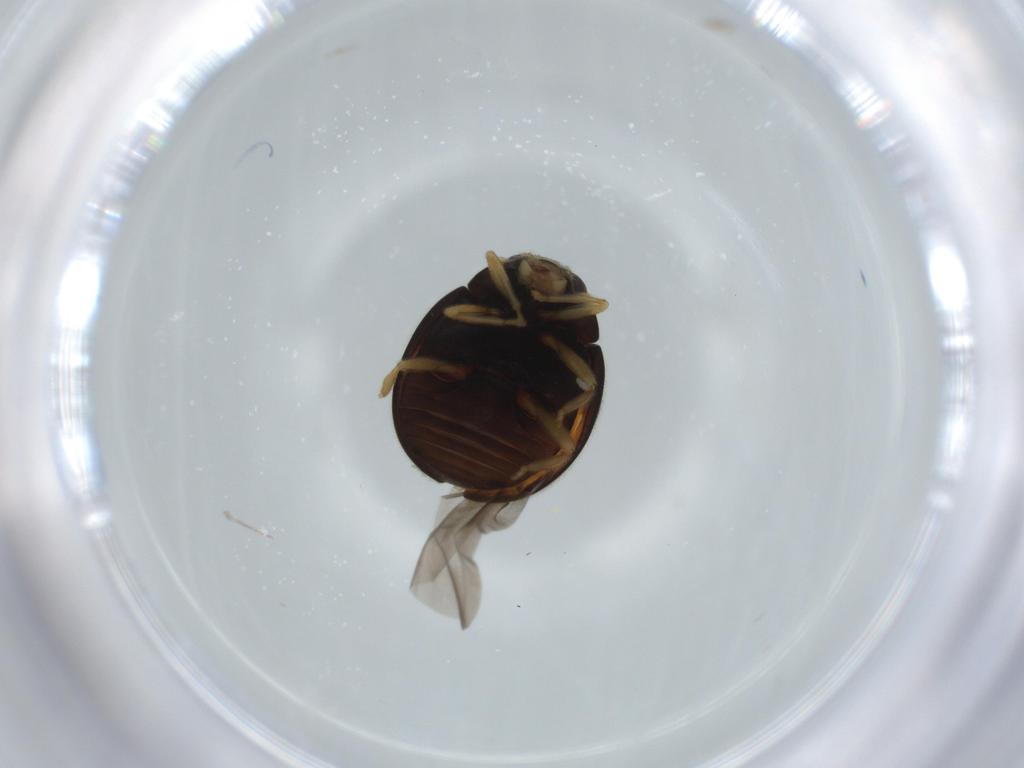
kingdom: Animalia
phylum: Arthropoda
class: Insecta
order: Coleoptera
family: Coccinellidae
